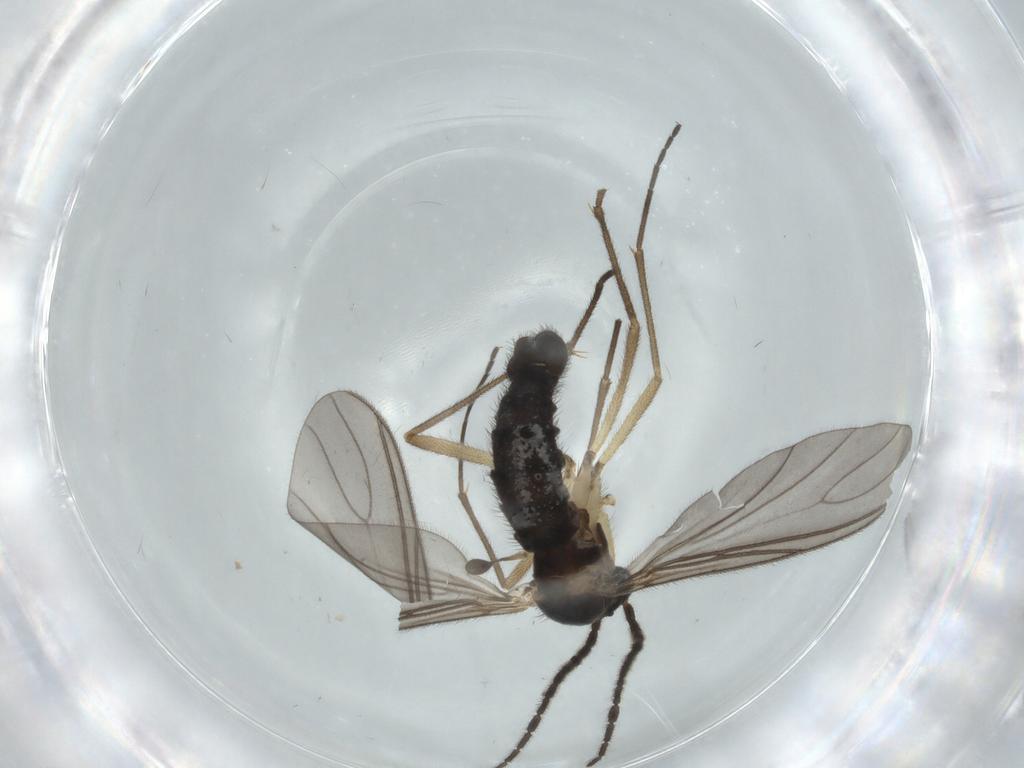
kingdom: Animalia
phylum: Arthropoda
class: Insecta
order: Diptera
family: Sciaridae
